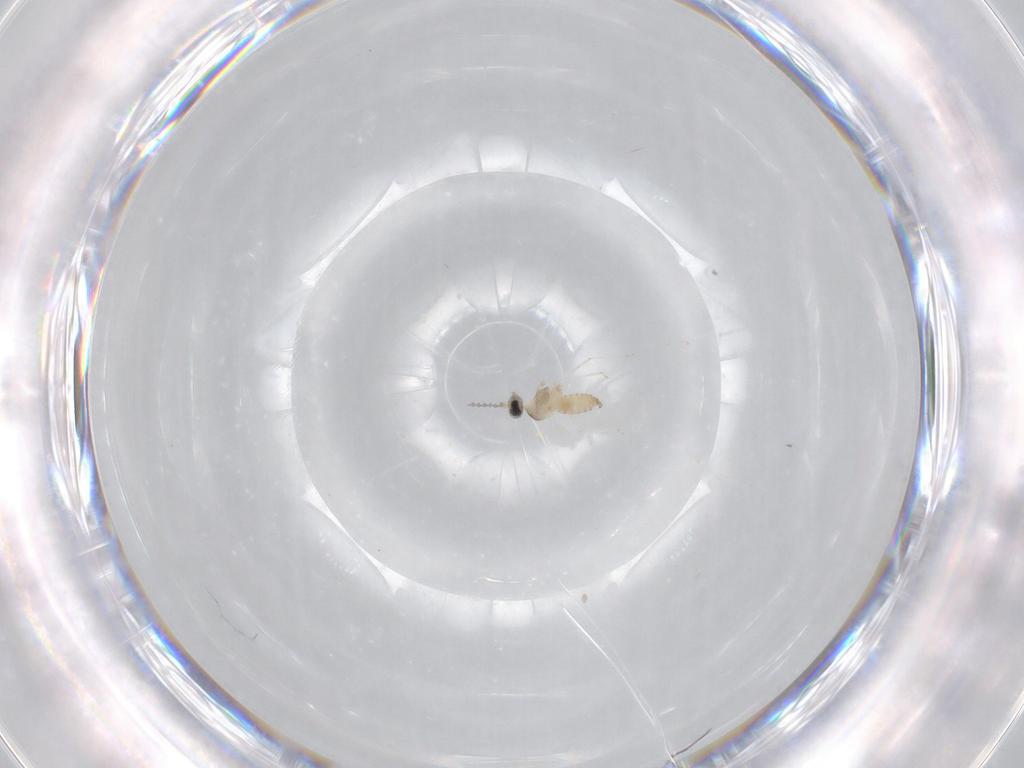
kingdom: Animalia
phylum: Arthropoda
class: Insecta
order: Diptera
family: Cecidomyiidae
